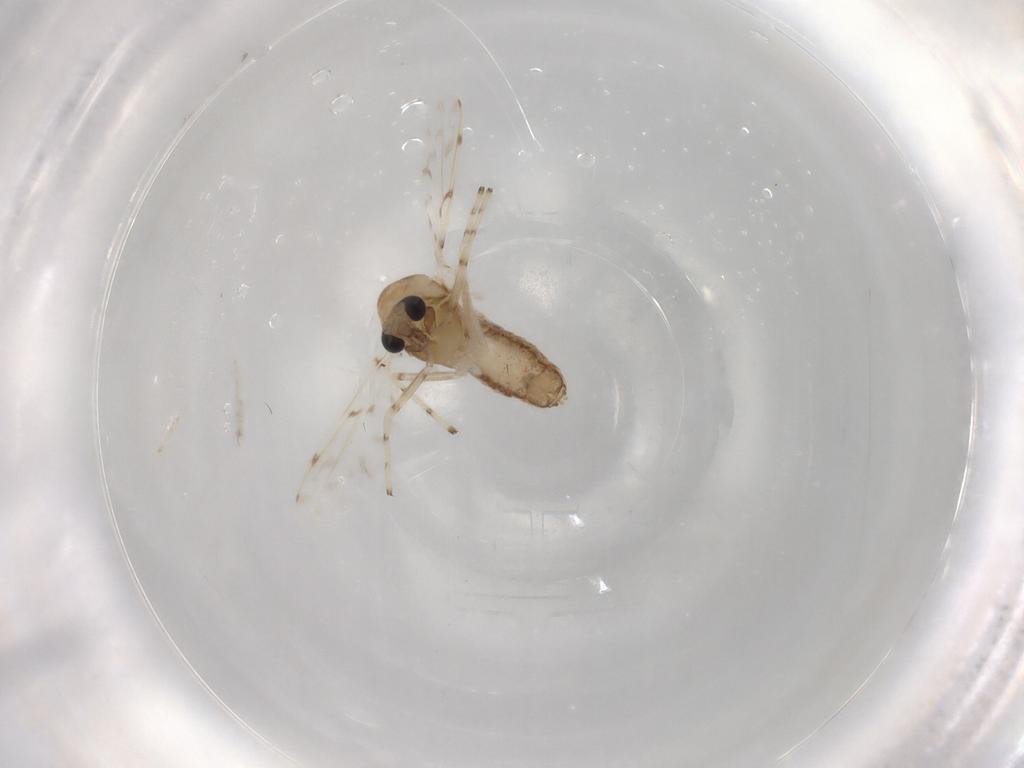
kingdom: Animalia
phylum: Arthropoda
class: Insecta
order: Diptera
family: Chironomidae
